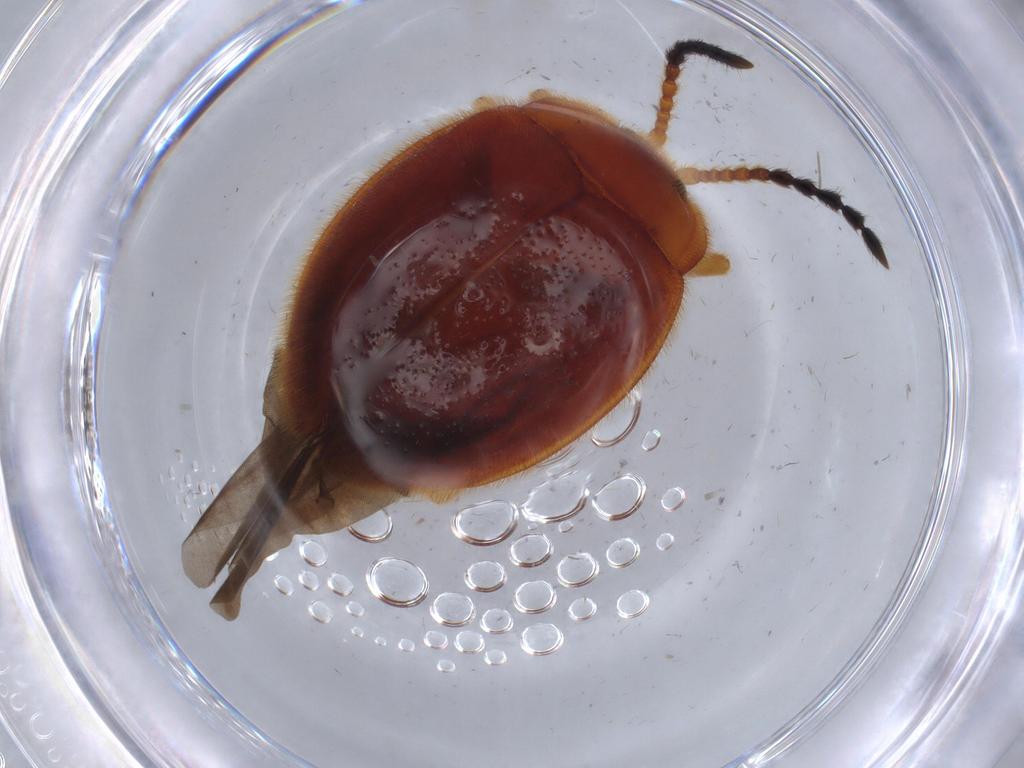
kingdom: Animalia
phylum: Arthropoda
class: Insecta
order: Coleoptera
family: Endomychidae
